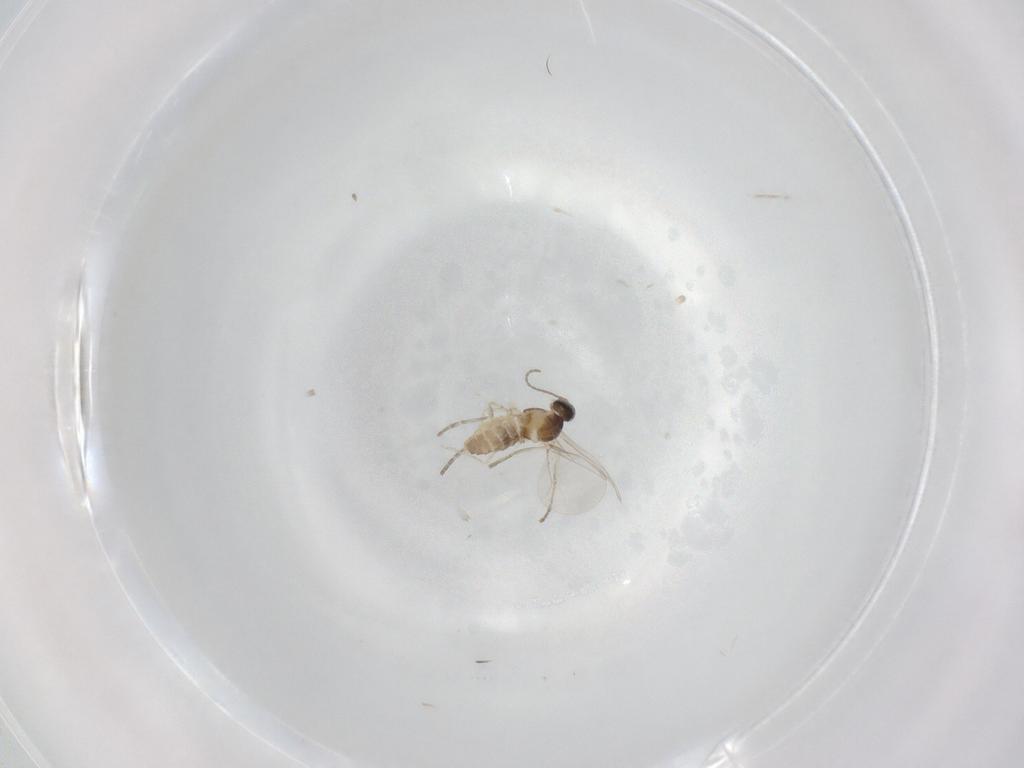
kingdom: Animalia
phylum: Arthropoda
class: Insecta
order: Diptera
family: Cecidomyiidae
